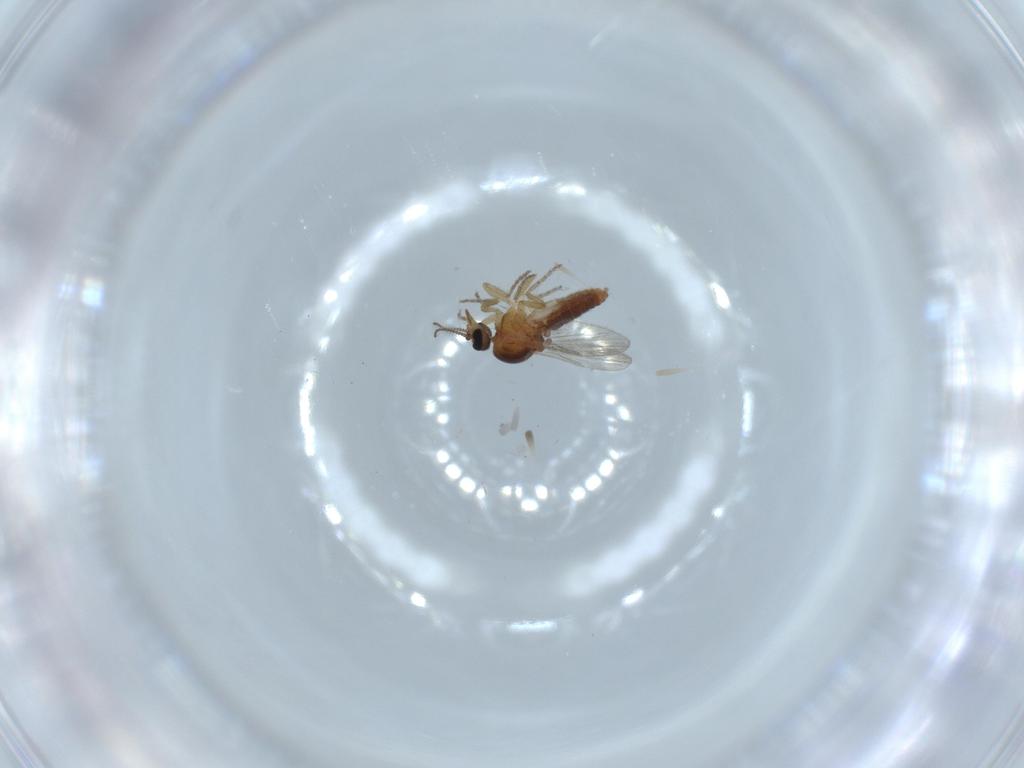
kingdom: Animalia
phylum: Arthropoda
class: Insecta
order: Diptera
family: Ceratopogonidae
